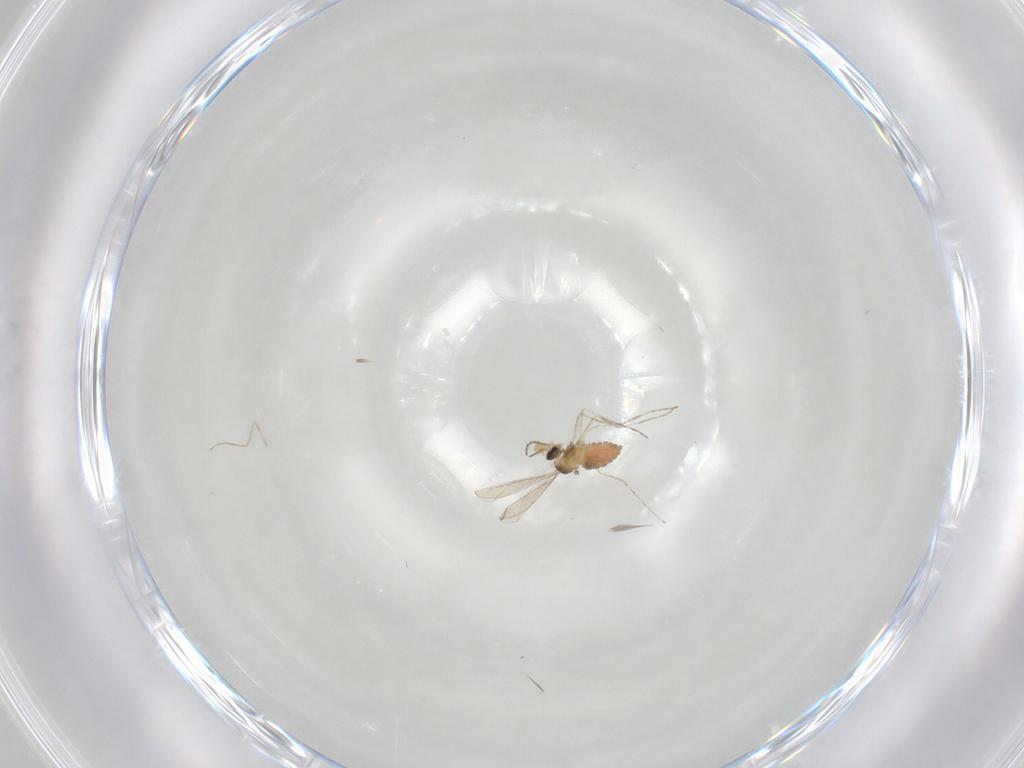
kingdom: Animalia
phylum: Arthropoda
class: Insecta
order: Diptera
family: Cecidomyiidae
